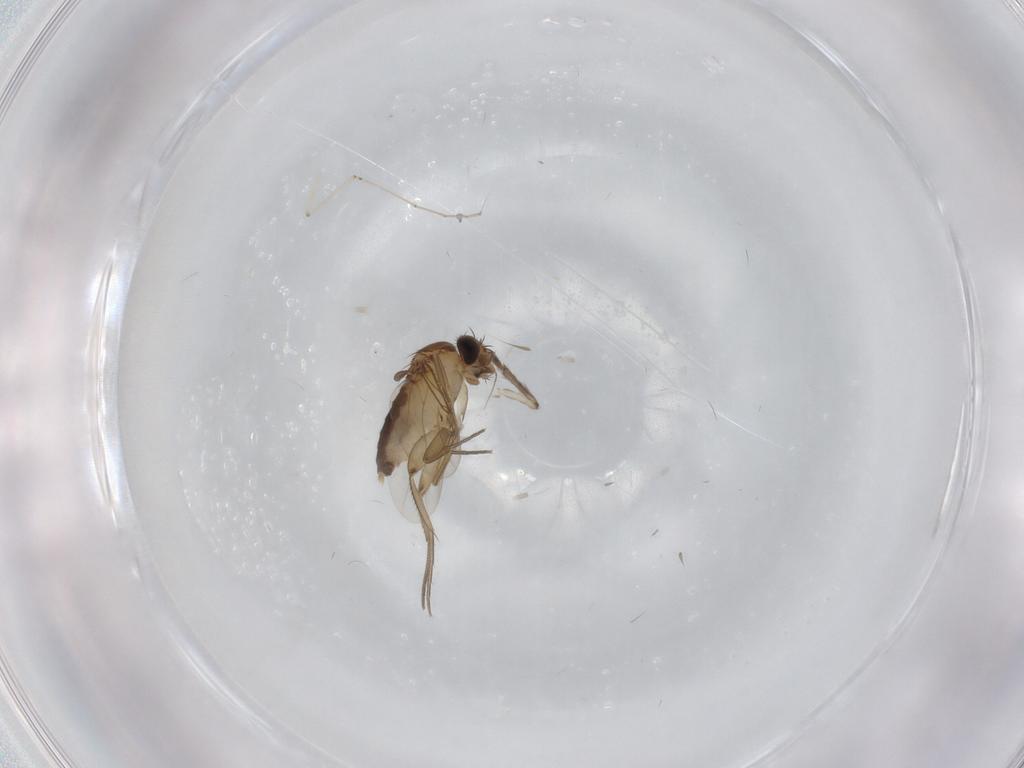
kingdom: Animalia
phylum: Arthropoda
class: Insecta
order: Diptera
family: Phoridae
